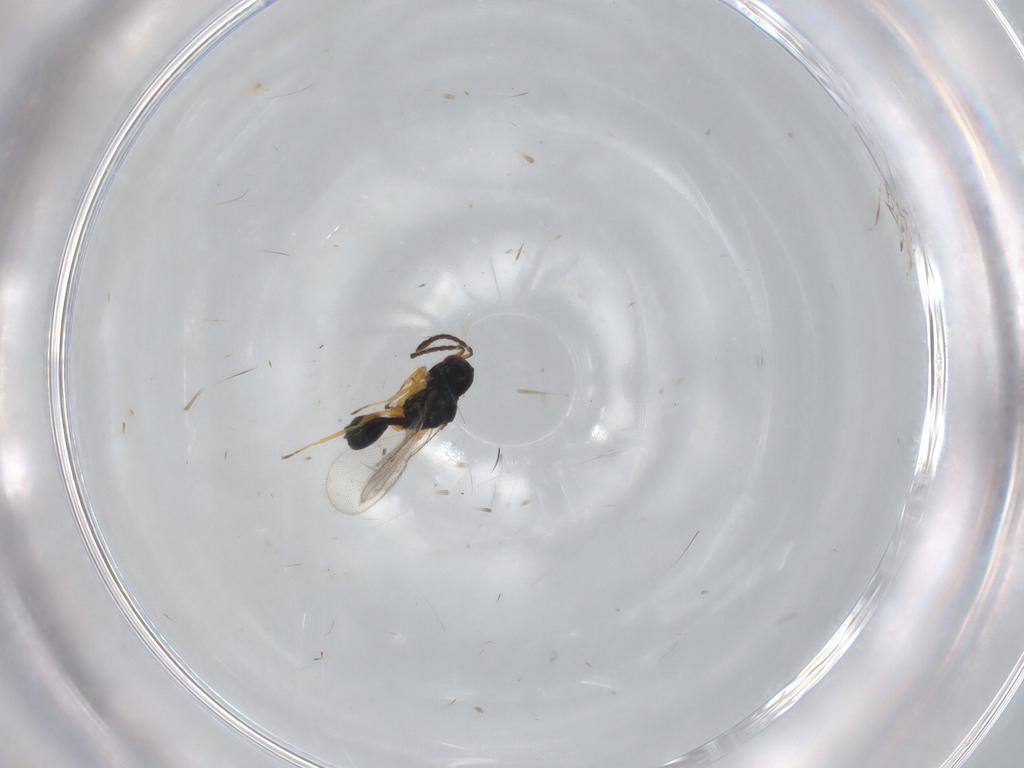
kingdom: Animalia
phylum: Arthropoda
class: Insecta
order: Hymenoptera
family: Pteromalidae
